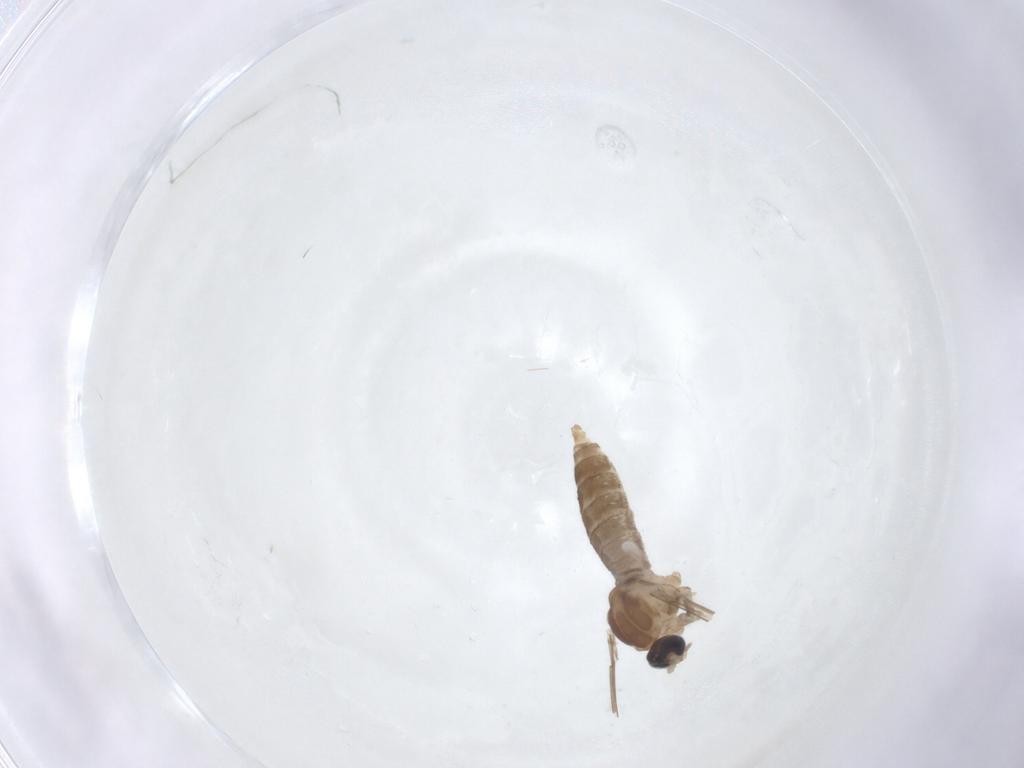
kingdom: Animalia
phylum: Arthropoda
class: Insecta
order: Diptera
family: Cecidomyiidae
